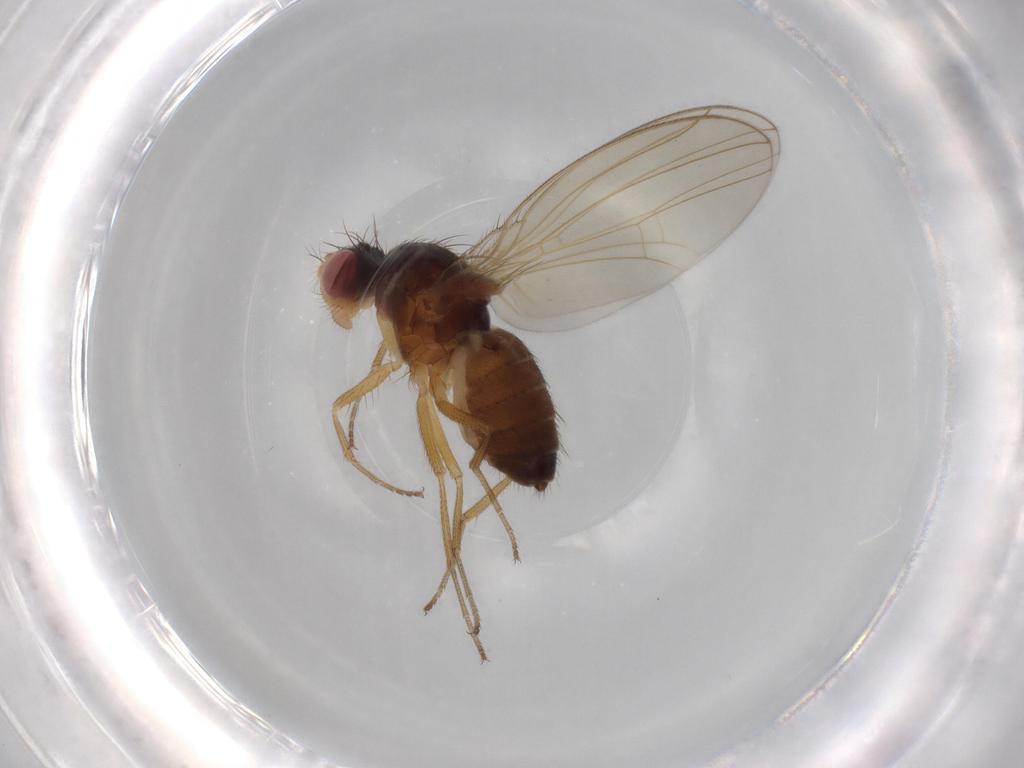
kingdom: Animalia
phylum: Arthropoda
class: Insecta
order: Diptera
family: Drosophilidae
